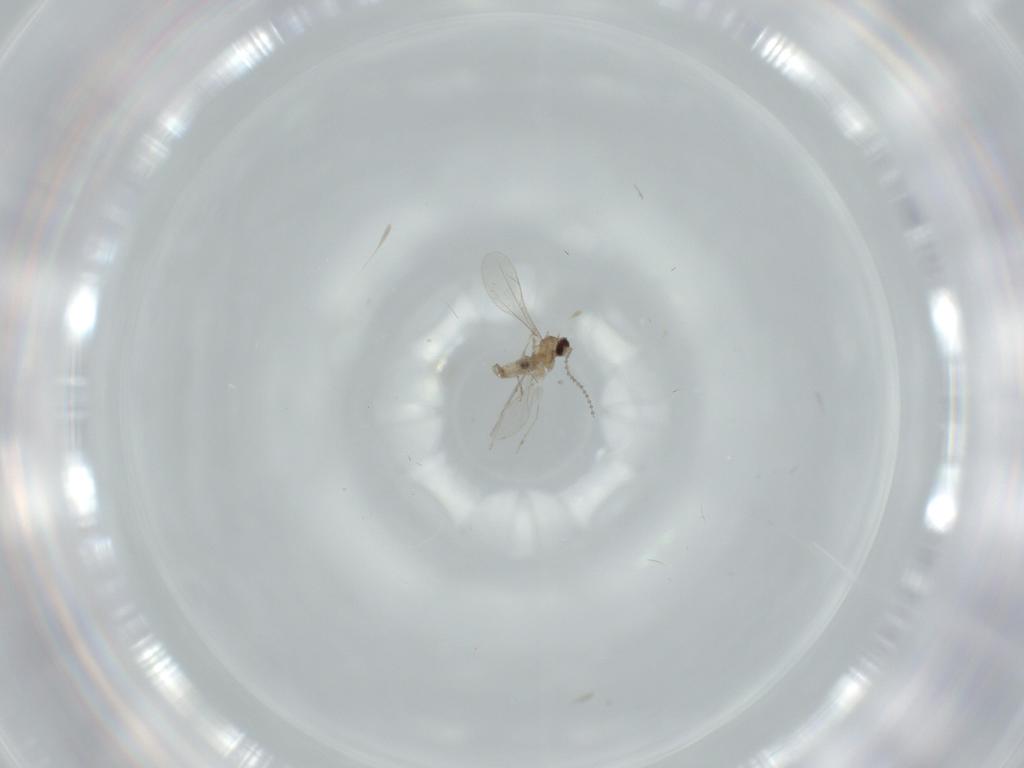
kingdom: Animalia
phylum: Arthropoda
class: Insecta
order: Diptera
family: Cecidomyiidae
